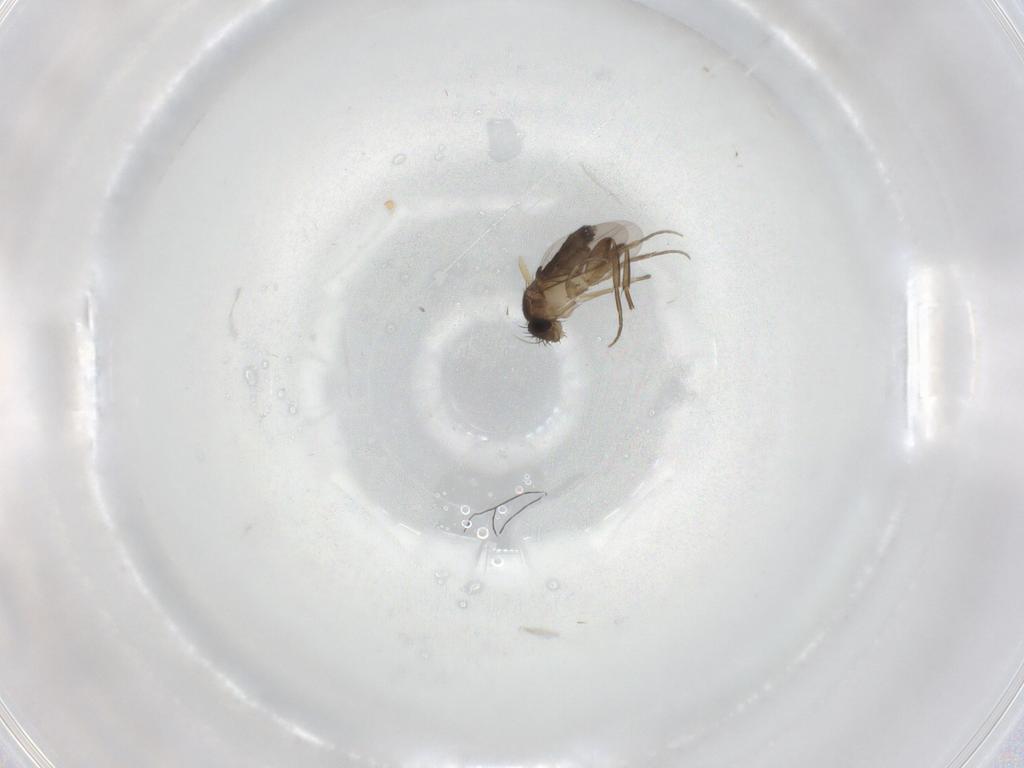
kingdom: Animalia
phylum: Arthropoda
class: Insecta
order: Diptera
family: Phoridae
